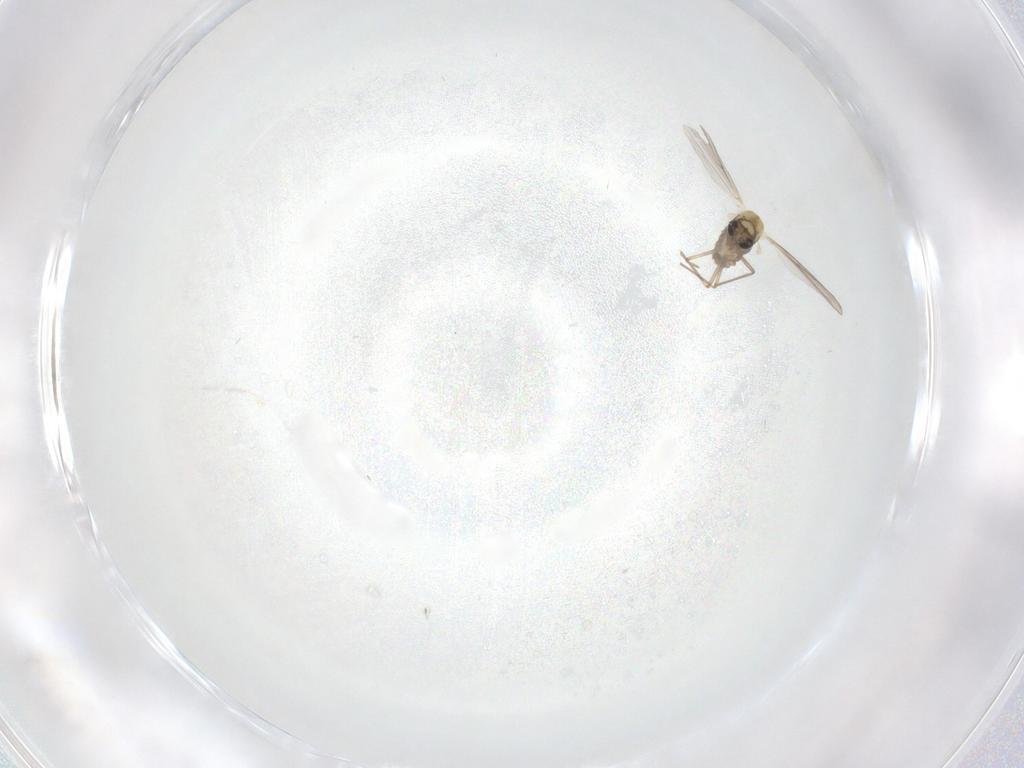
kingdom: Animalia
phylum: Arthropoda
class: Insecta
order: Diptera
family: Chironomidae
